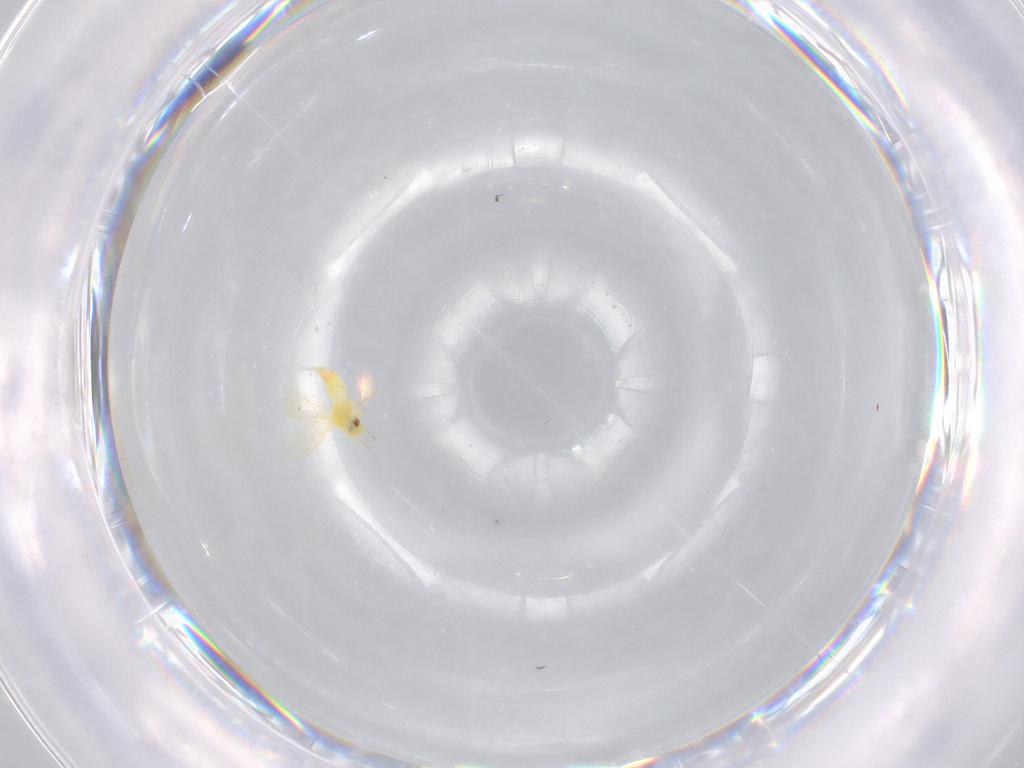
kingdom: Animalia
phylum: Arthropoda
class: Insecta
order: Hemiptera
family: Aleyrodidae
